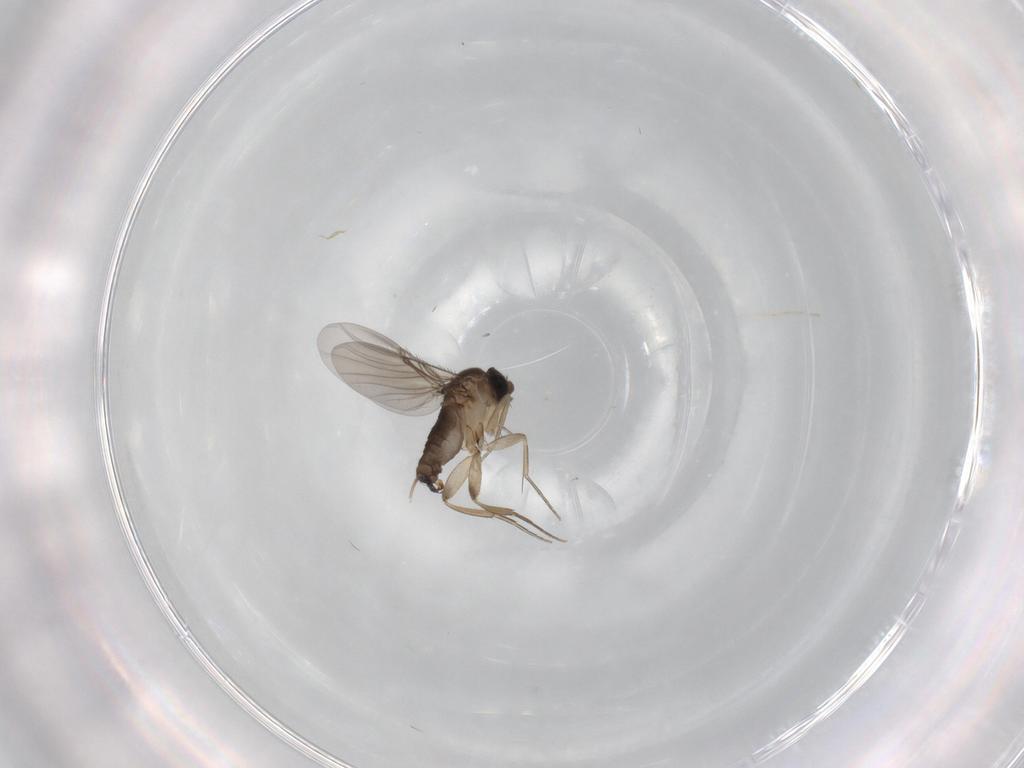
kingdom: Animalia
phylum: Arthropoda
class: Insecta
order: Diptera
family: Phoridae
